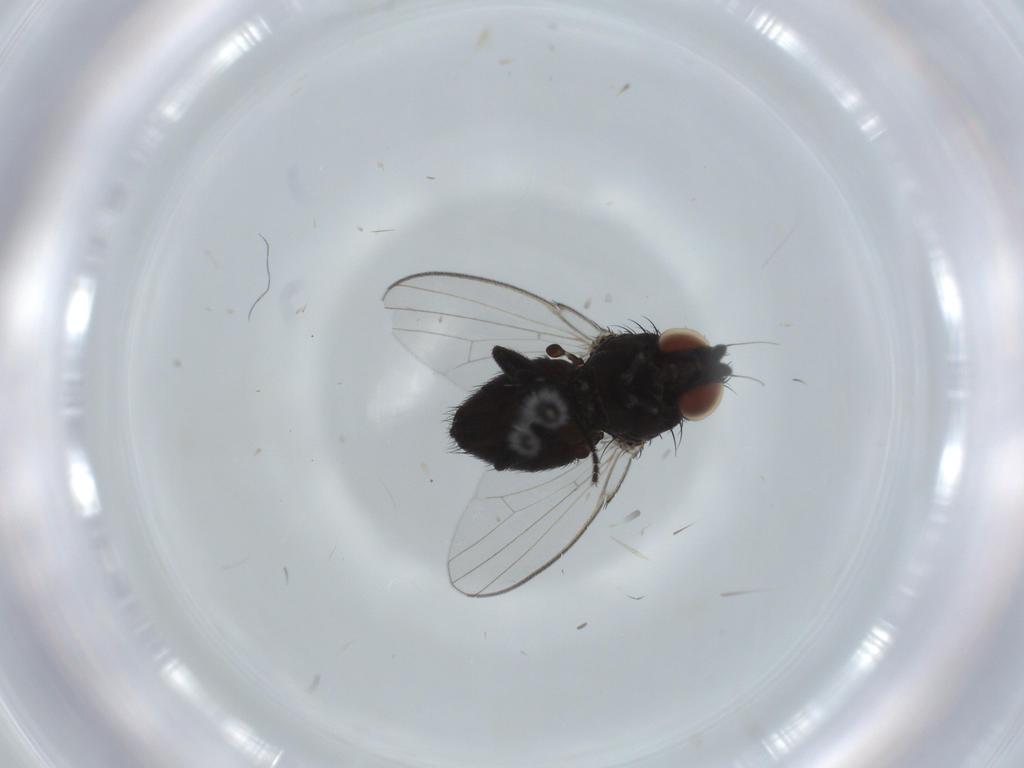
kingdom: Animalia
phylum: Arthropoda
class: Insecta
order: Diptera
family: Milichiidae
